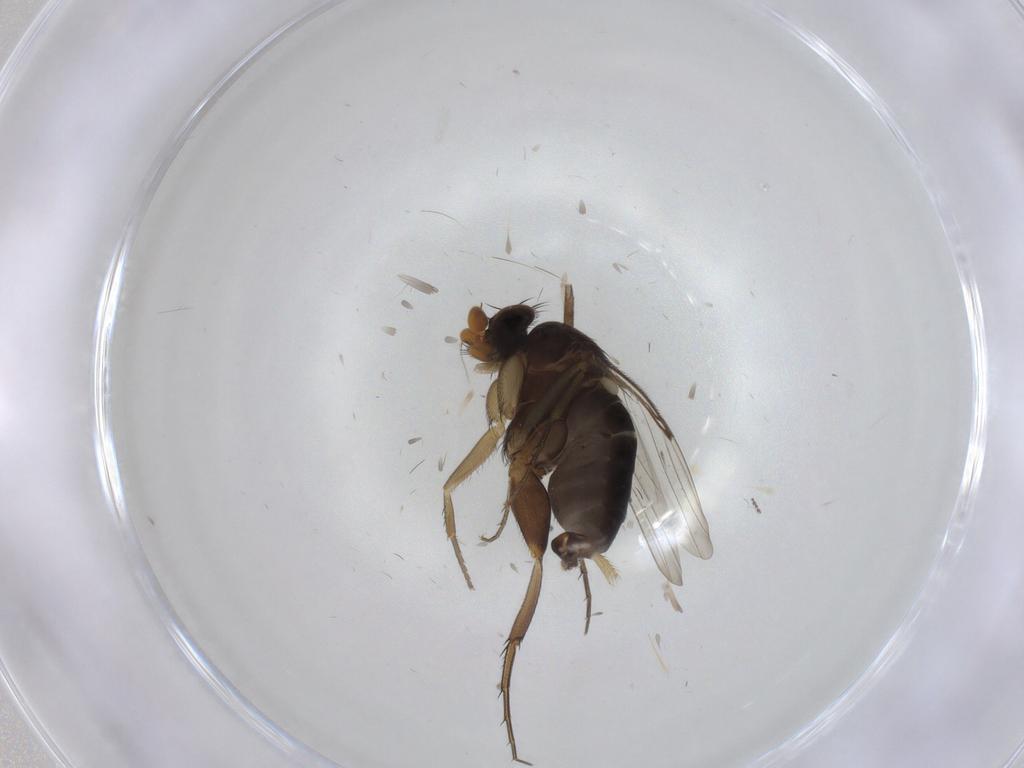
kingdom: Animalia
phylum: Arthropoda
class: Insecta
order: Diptera
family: Phoridae
